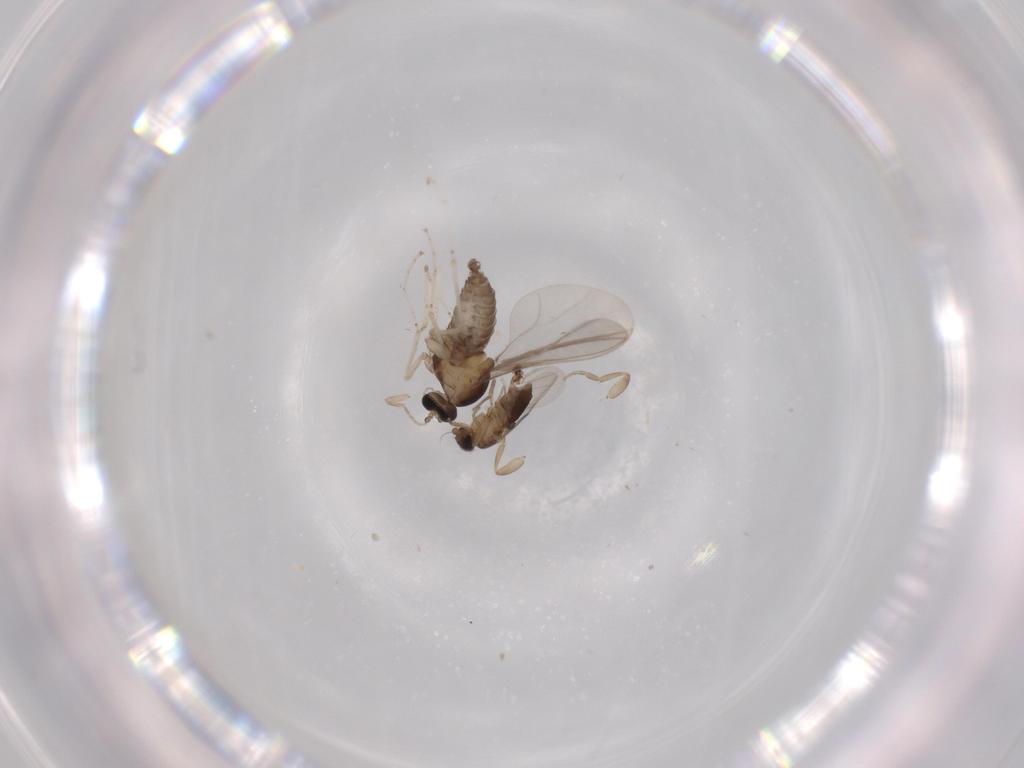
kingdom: Animalia
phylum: Arthropoda
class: Insecta
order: Diptera
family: Cecidomyiidae
